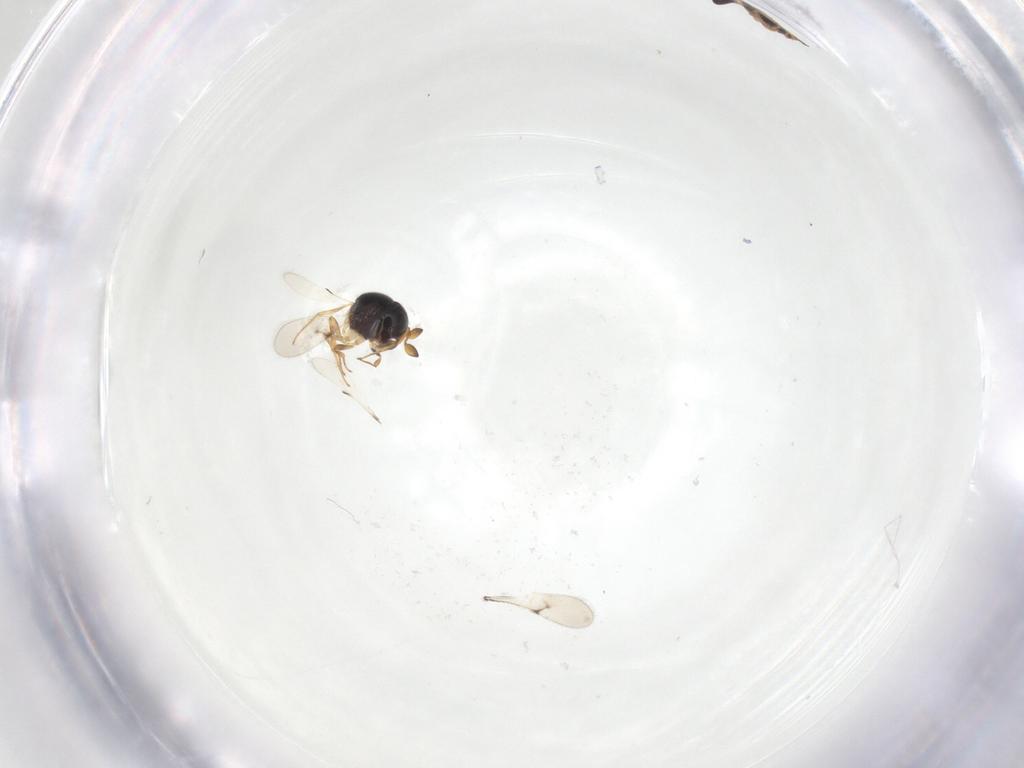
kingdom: Animalia
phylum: Arthropoda
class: Insecta
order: Hymenoptera
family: Scelionidae
